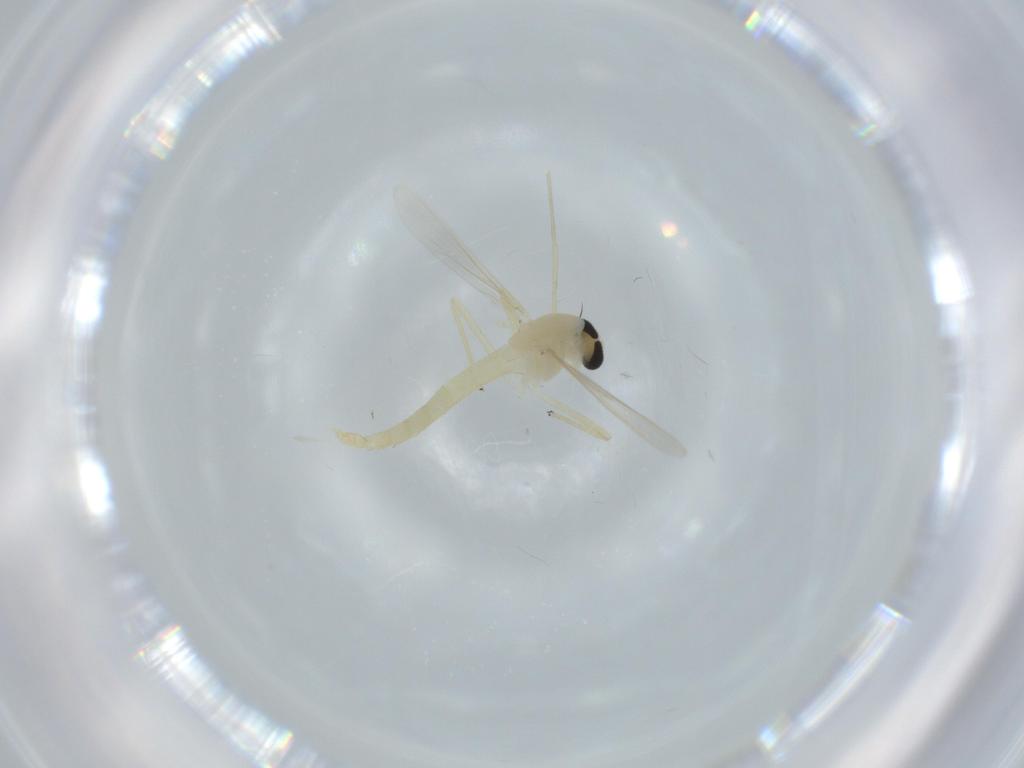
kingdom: Animalia
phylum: Arthropoda
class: Insecta
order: Diptera
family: Chironomidae
